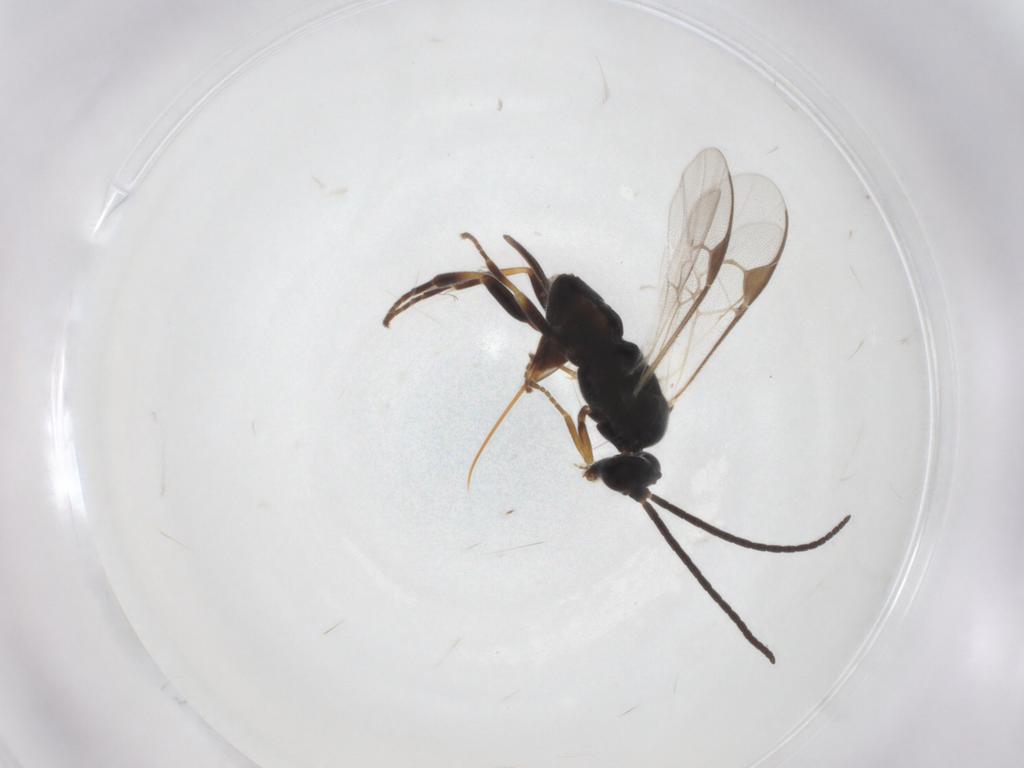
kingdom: Animalia
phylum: Arthropoda
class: Insecta
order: Hymenoptera
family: Braconidae
